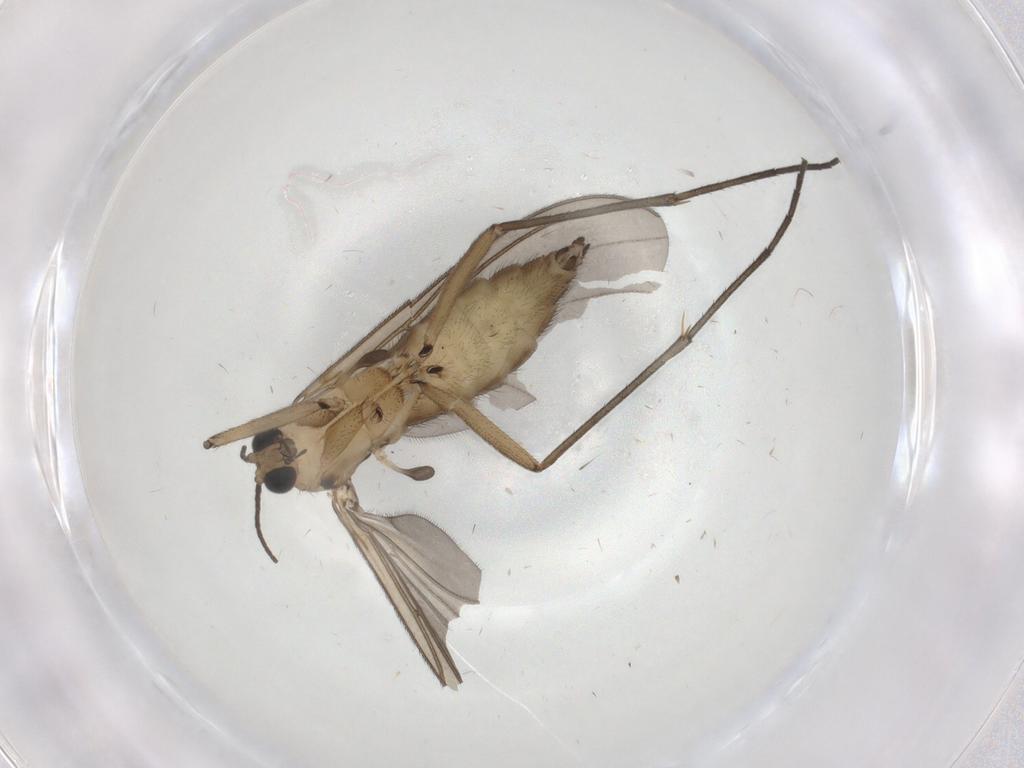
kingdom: Animalia
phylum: Arthropoda
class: Insecta
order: Diptera
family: Sciaridae
